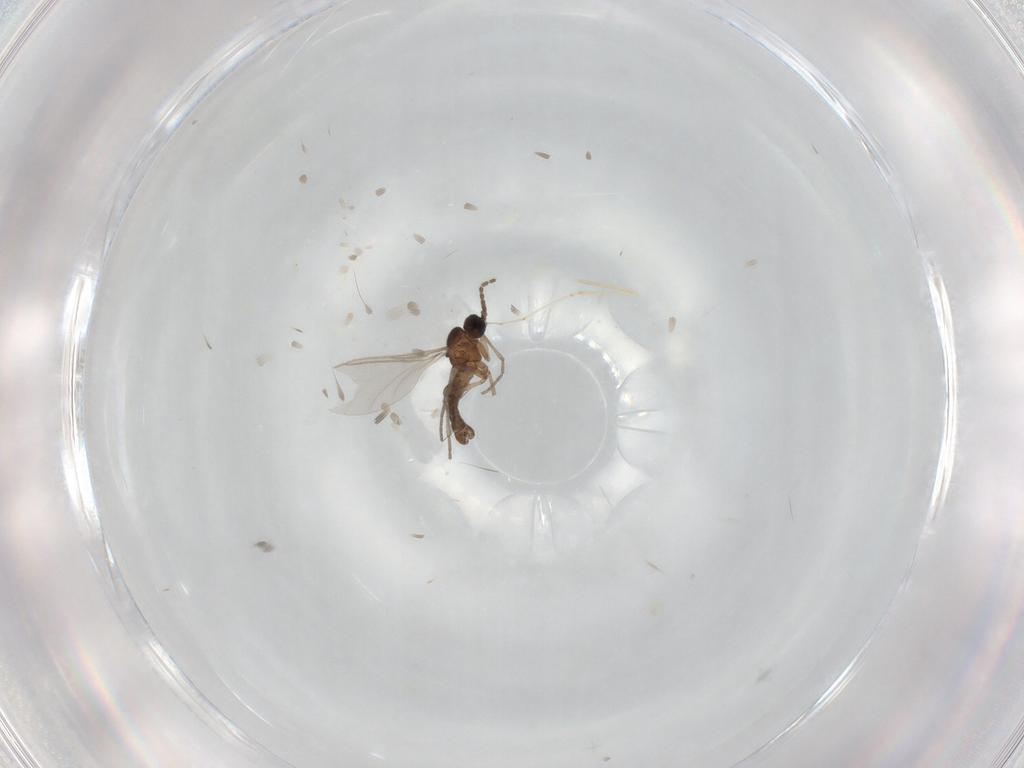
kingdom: Animalia
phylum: Arthropoda
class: Insecta
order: Diptera
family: Sciaridae
